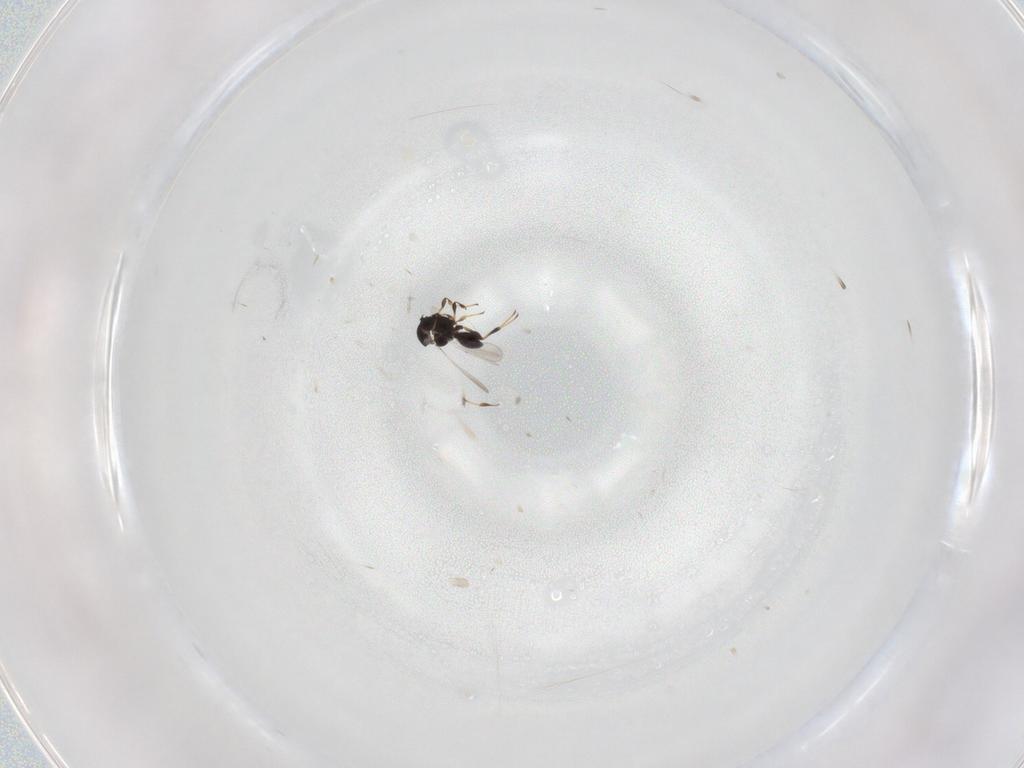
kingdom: Animalia
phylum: Arthropoda
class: Insecta
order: Hymenoptera
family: Platygastridae
